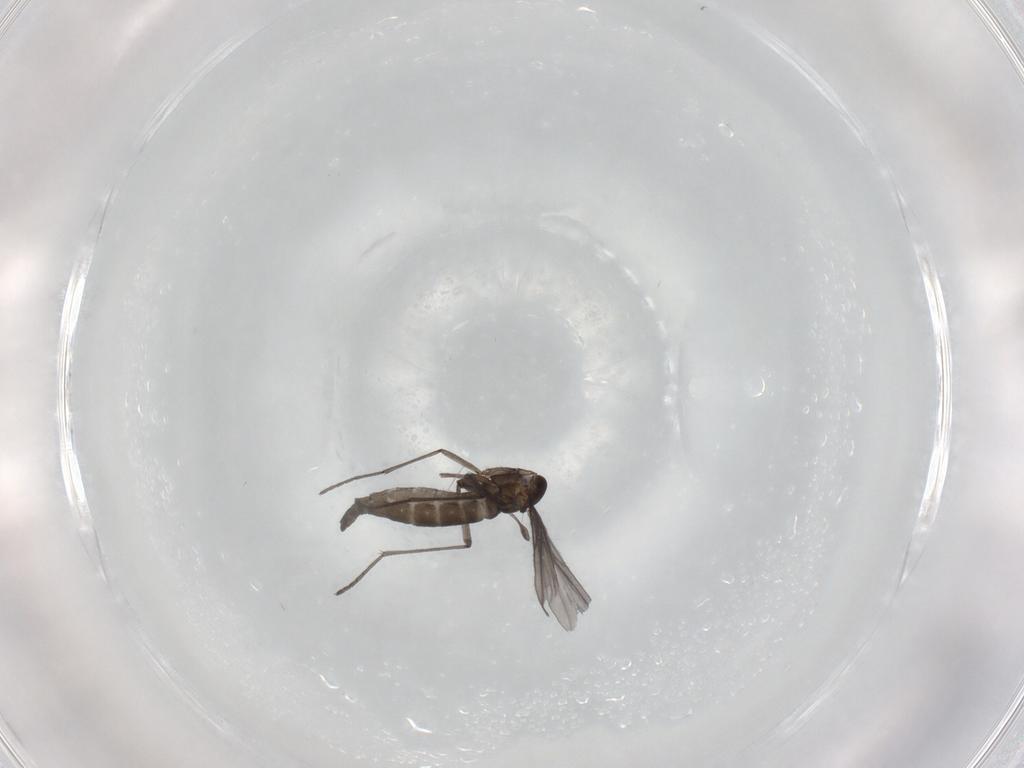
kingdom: Animalia
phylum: Arthropoda
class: Insecta
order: Diptera
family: Sciaridae
